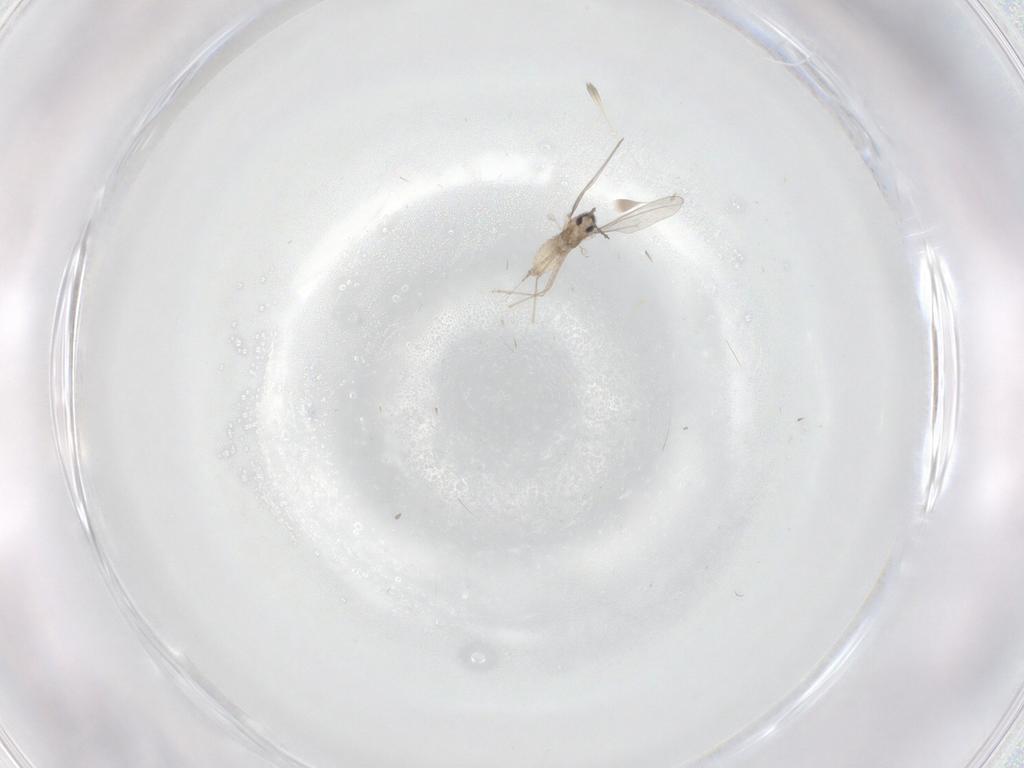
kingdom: Animalia
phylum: Arthropoda
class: Insecta
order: Diptera
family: Cecidomyiidae
